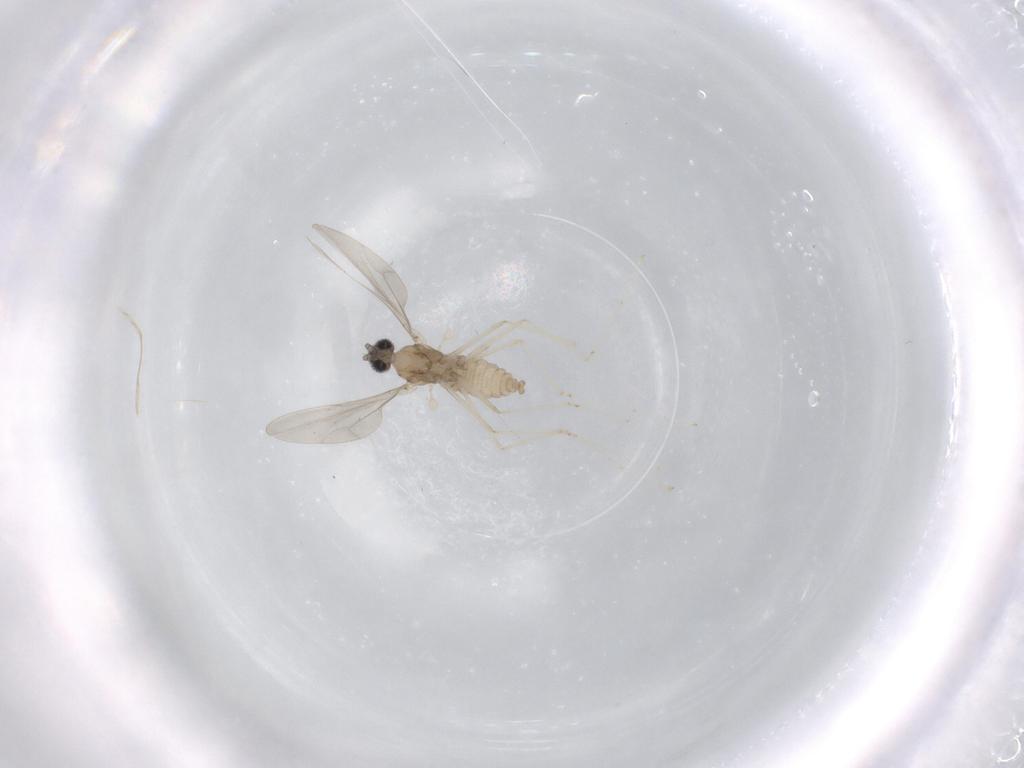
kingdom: Animalia
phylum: Arthropoda
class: Insecta
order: Diptera
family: Cecidomyiidae
